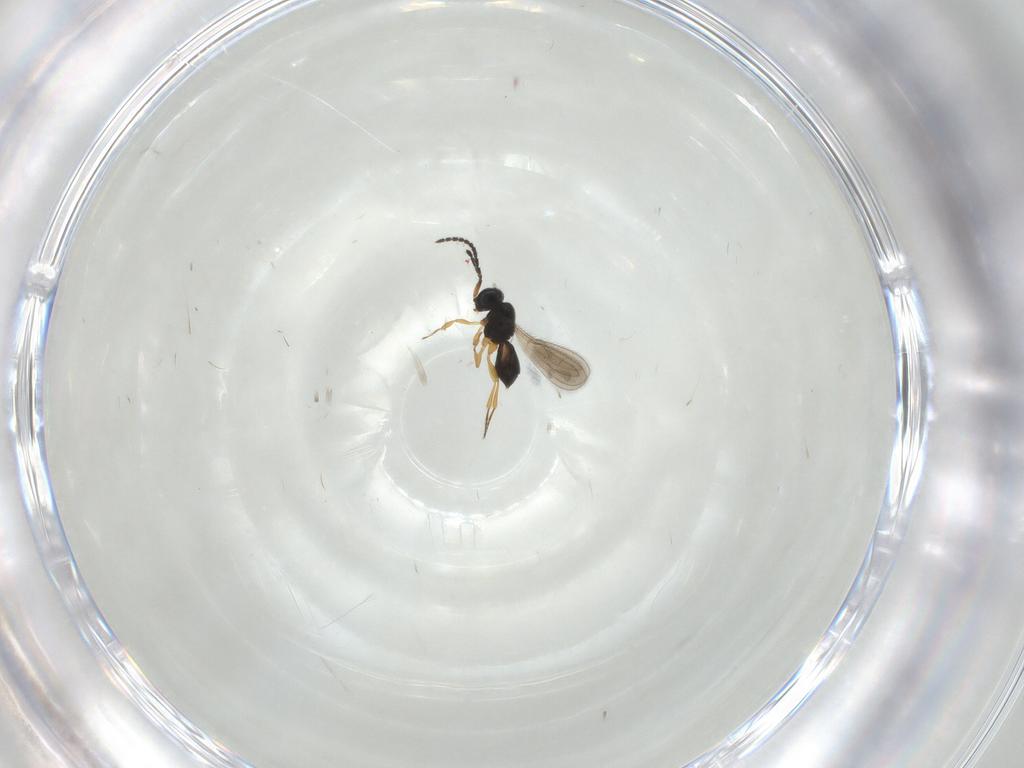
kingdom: Animalia
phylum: Arthropoda
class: Insecta
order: Hymenoptera
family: Scelionidae
